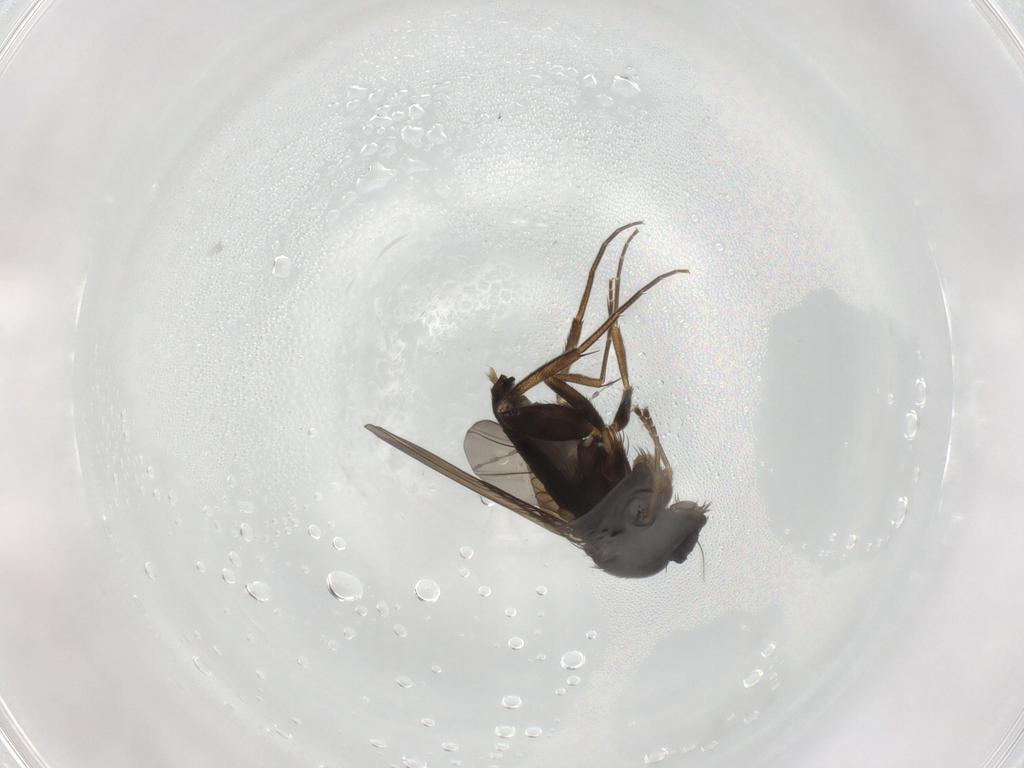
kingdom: Animalia
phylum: Arthropoda
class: Insecta
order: Diptera
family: Phoridae
